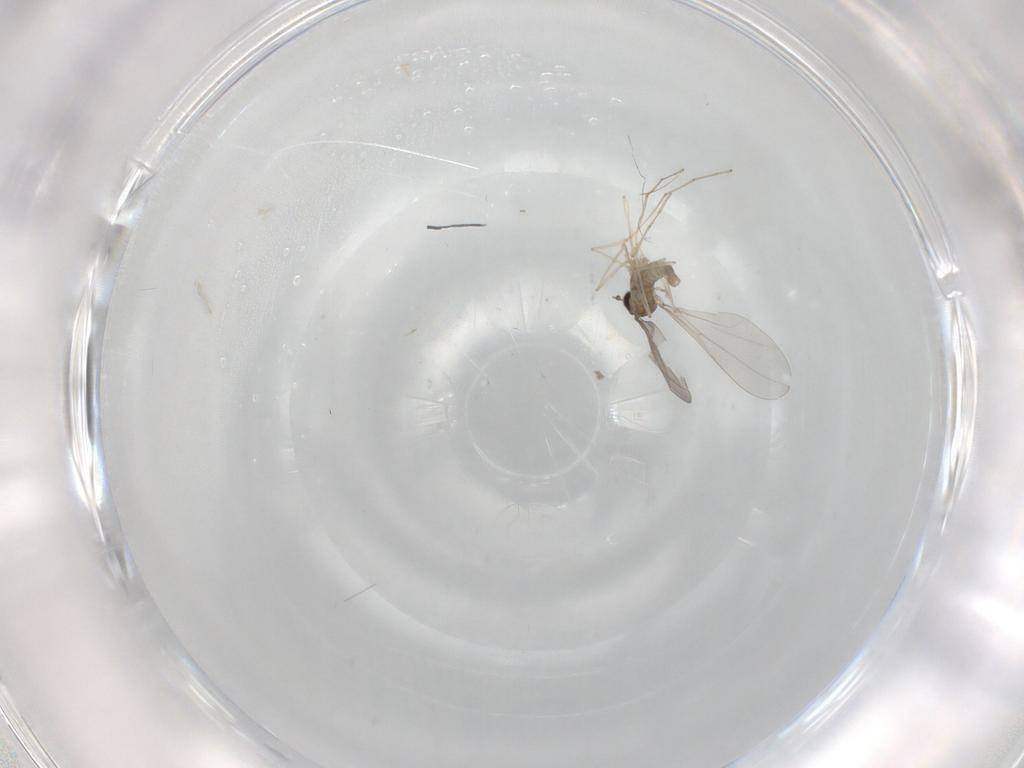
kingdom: Animalia
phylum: Arthropoda
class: Insecta
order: Diptera
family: Cecidomyiidae
